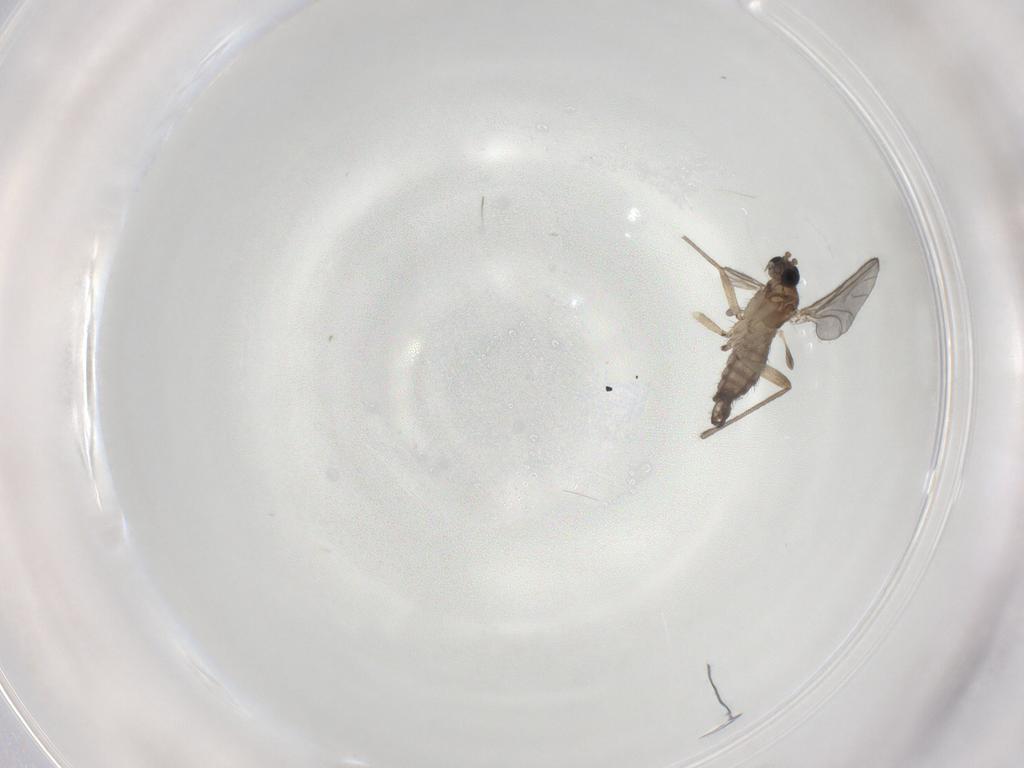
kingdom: Animalia
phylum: Arthropoda
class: Insecta
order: Diptera
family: Sciaridae
